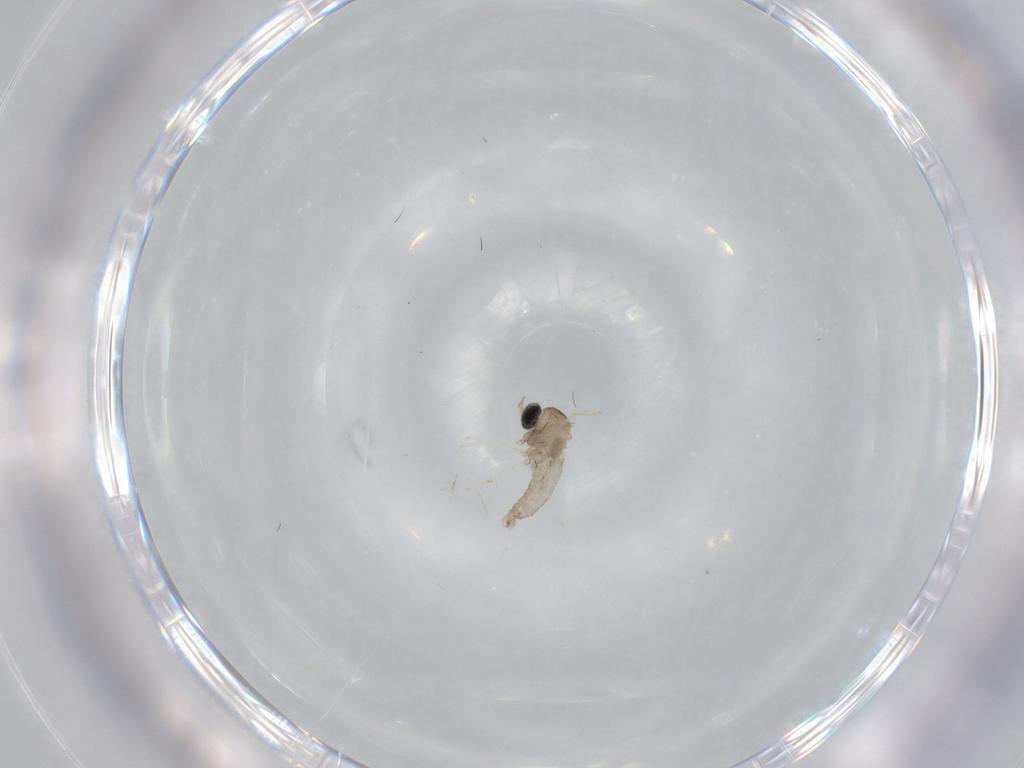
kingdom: Animalia
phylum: Arthropoda
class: Insecta
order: Diptera
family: Cecidomyiidae
